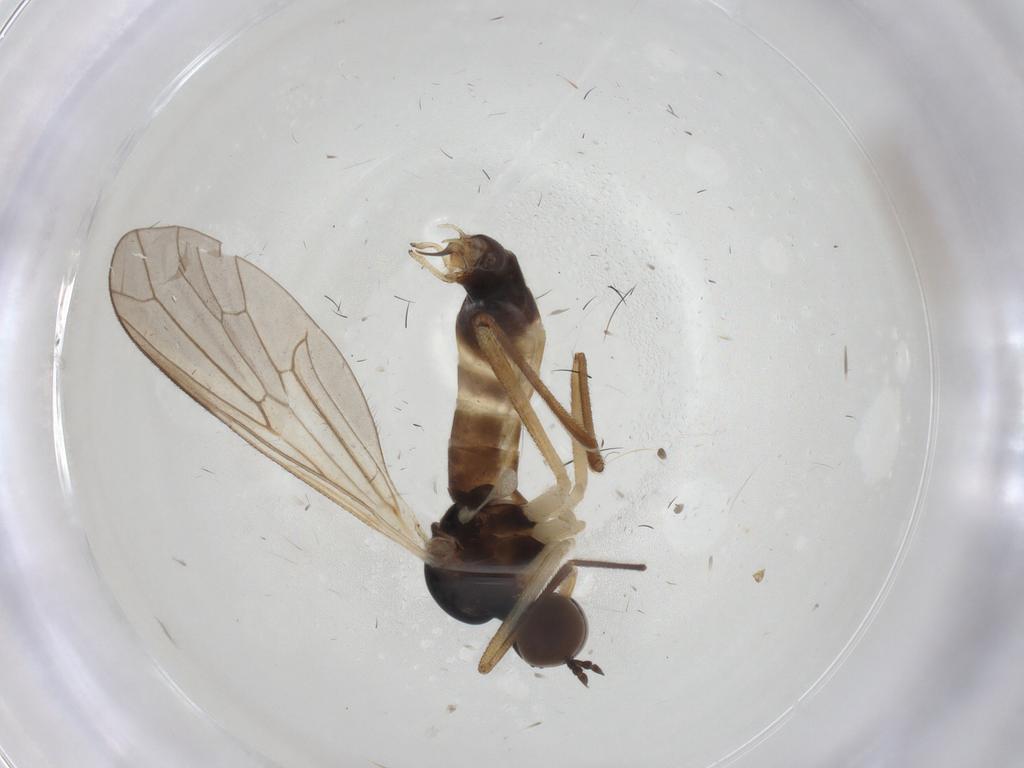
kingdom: Animalia
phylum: Arthropoda
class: Insecta
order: Diptera
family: Brachystomatidae
